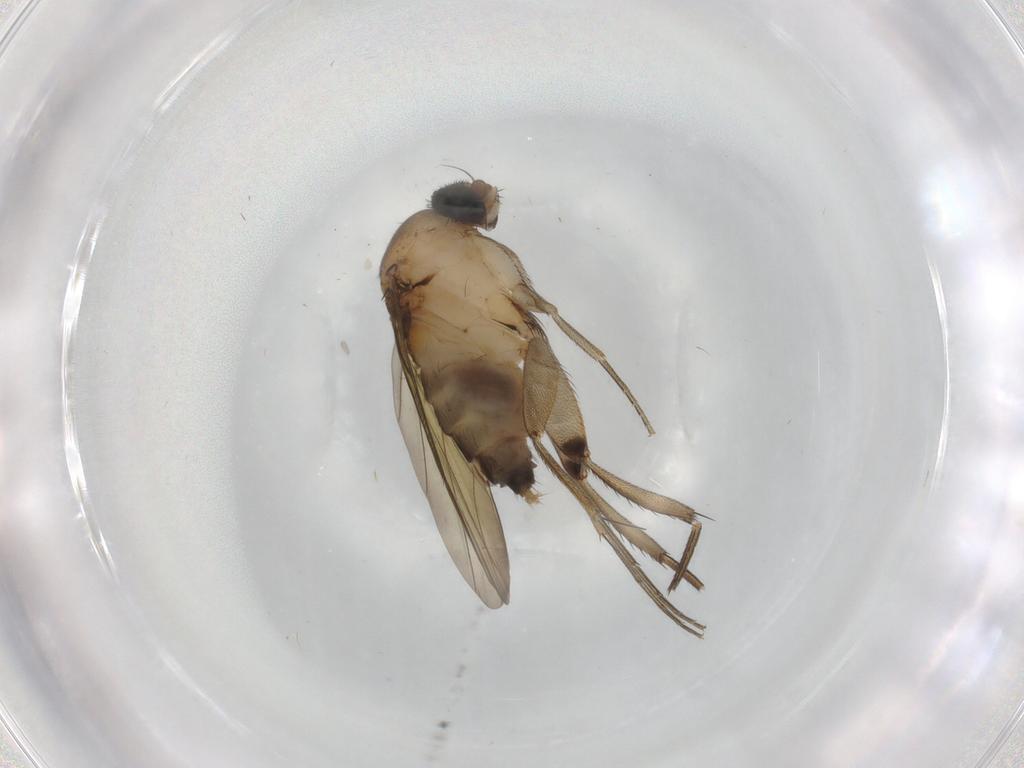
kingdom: Animalia
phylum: Arthropoda
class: Insecta
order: Diptera
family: Phoridae
